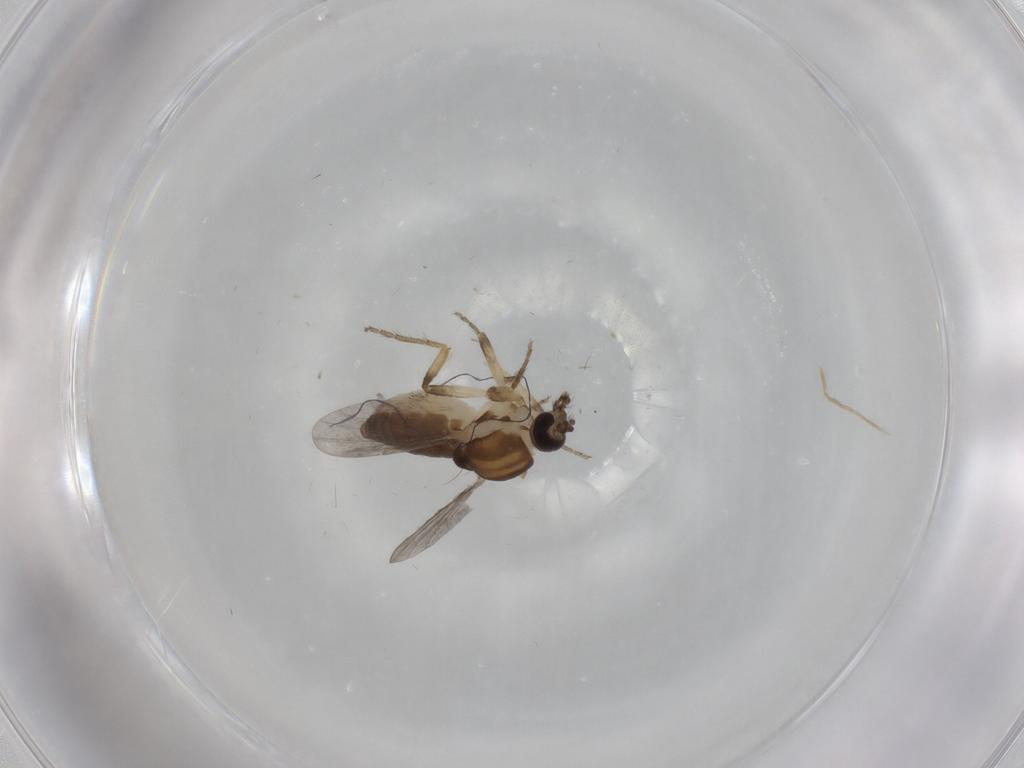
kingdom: Animalia
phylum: Arthropoda
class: Insecta
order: Diptera
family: Ceratopogonidae
